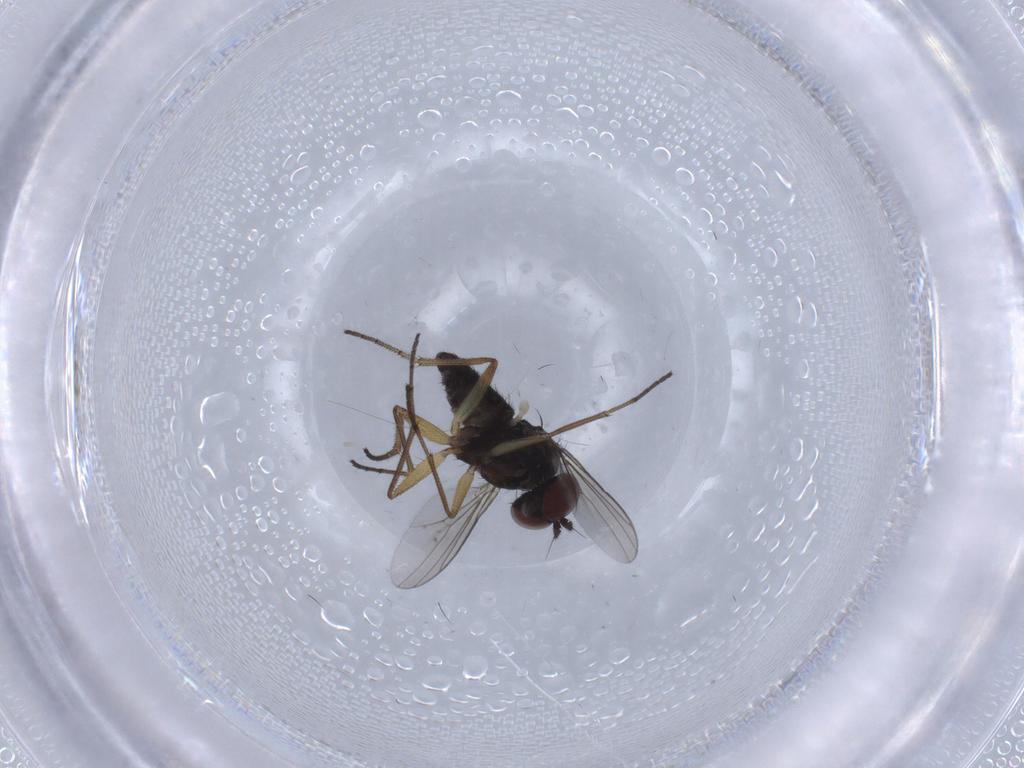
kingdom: Animalia
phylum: Arthropoda
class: Insecta
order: Diptera
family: Dolichopodidae
